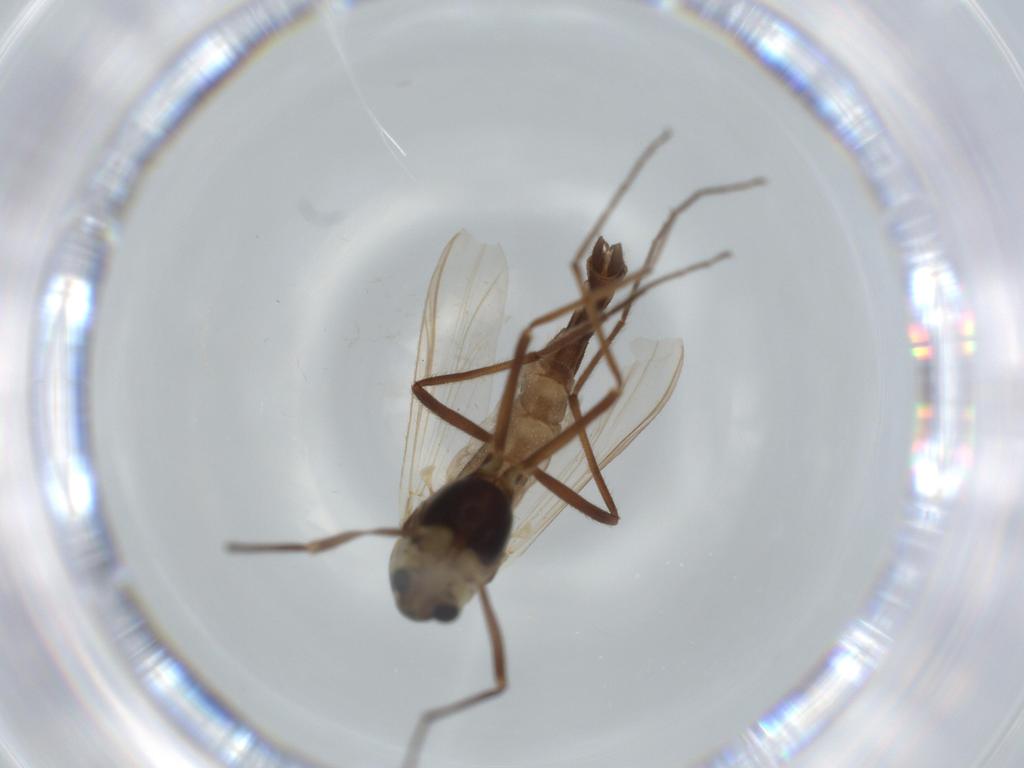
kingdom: Animalia
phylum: Arthropoda
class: Insecta
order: Diptera
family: Cecidomyiidae
